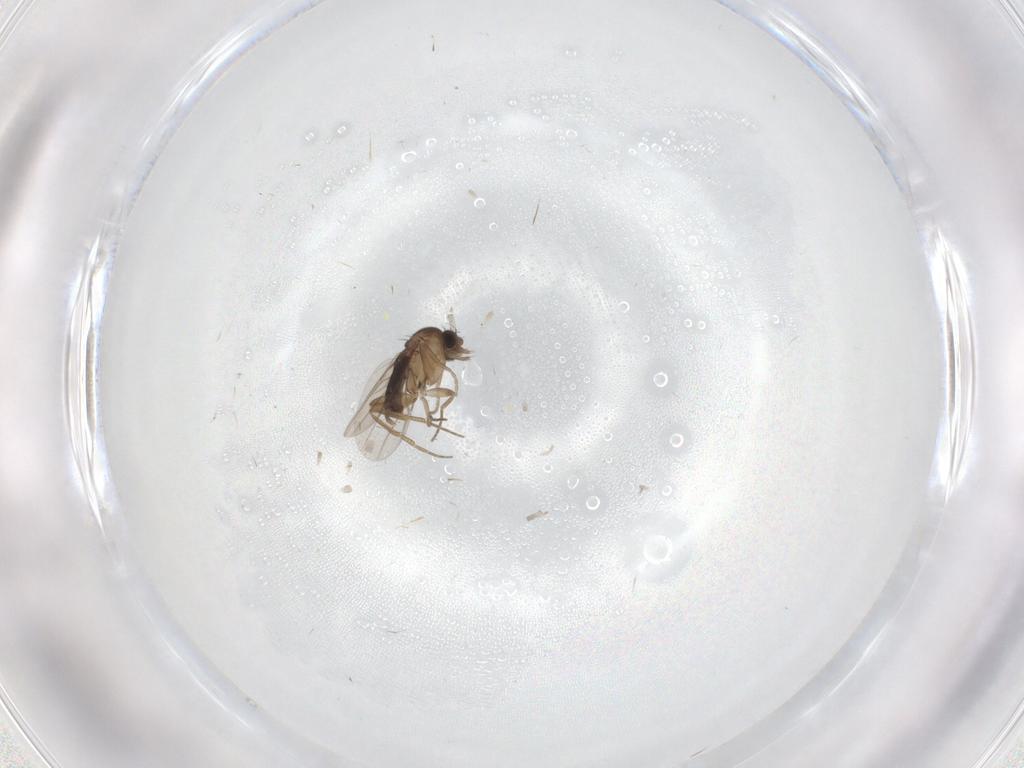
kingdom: Animalia
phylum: Arthropoda
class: Insecta
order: Diptera
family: Phoridae
